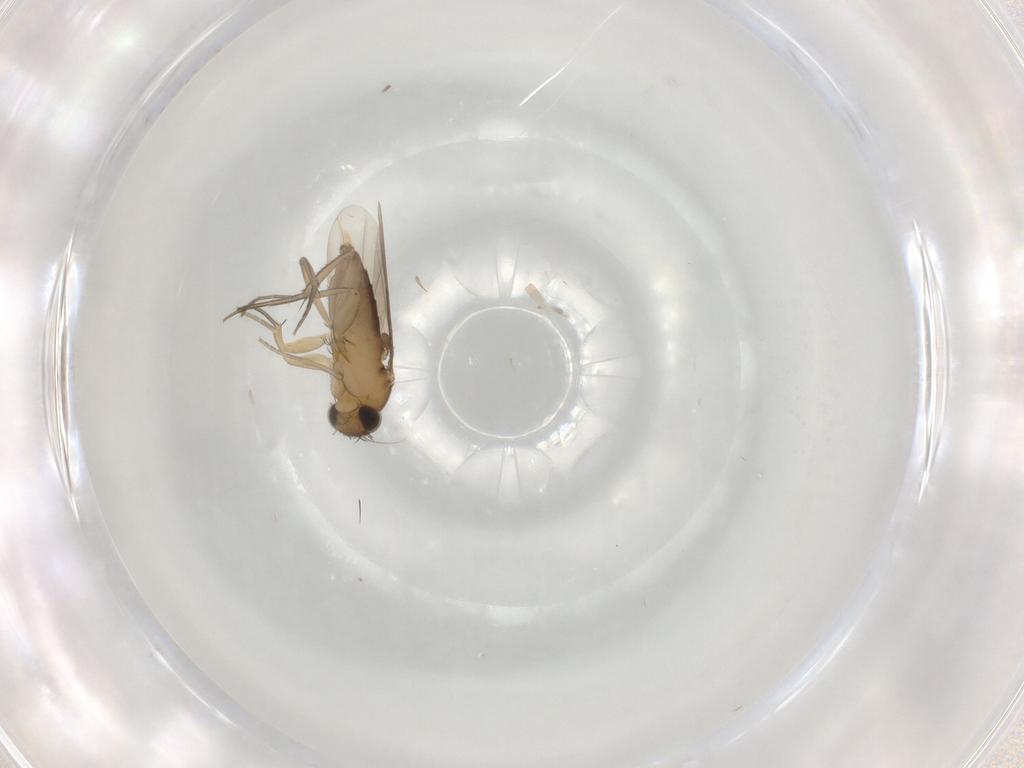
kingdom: Animalia
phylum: Arthropoda
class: Insecta
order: Diptera
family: Phoridae
